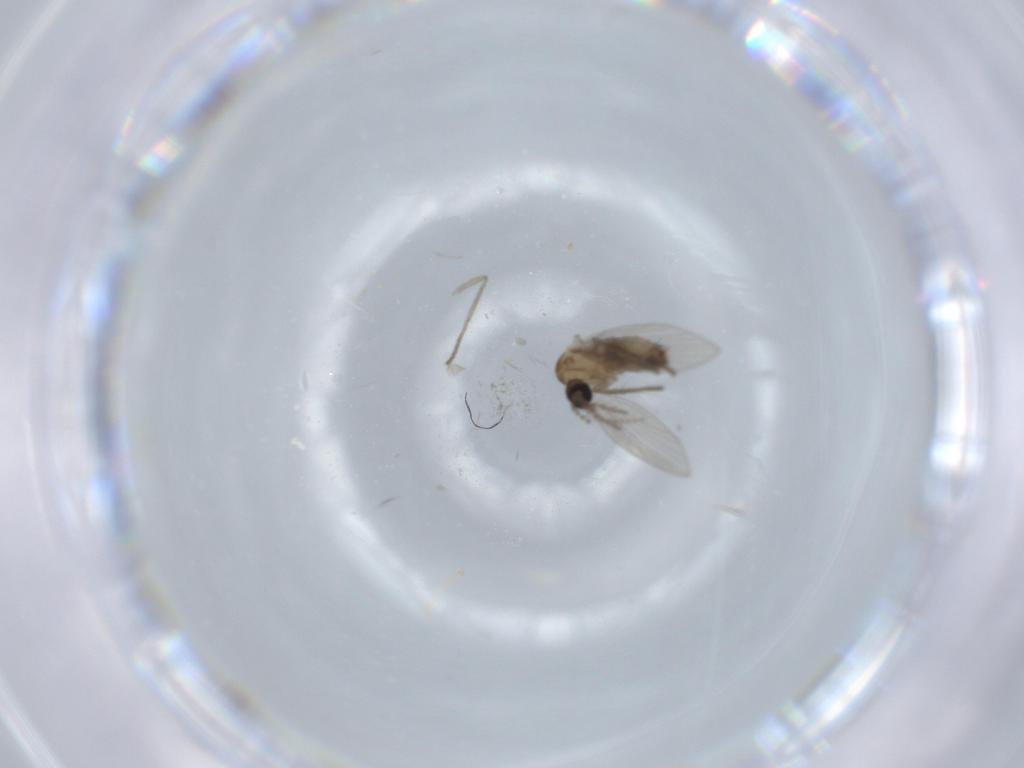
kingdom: Animalia
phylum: Arthropoda
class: Insecta
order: Diptera
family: Psychodidae
